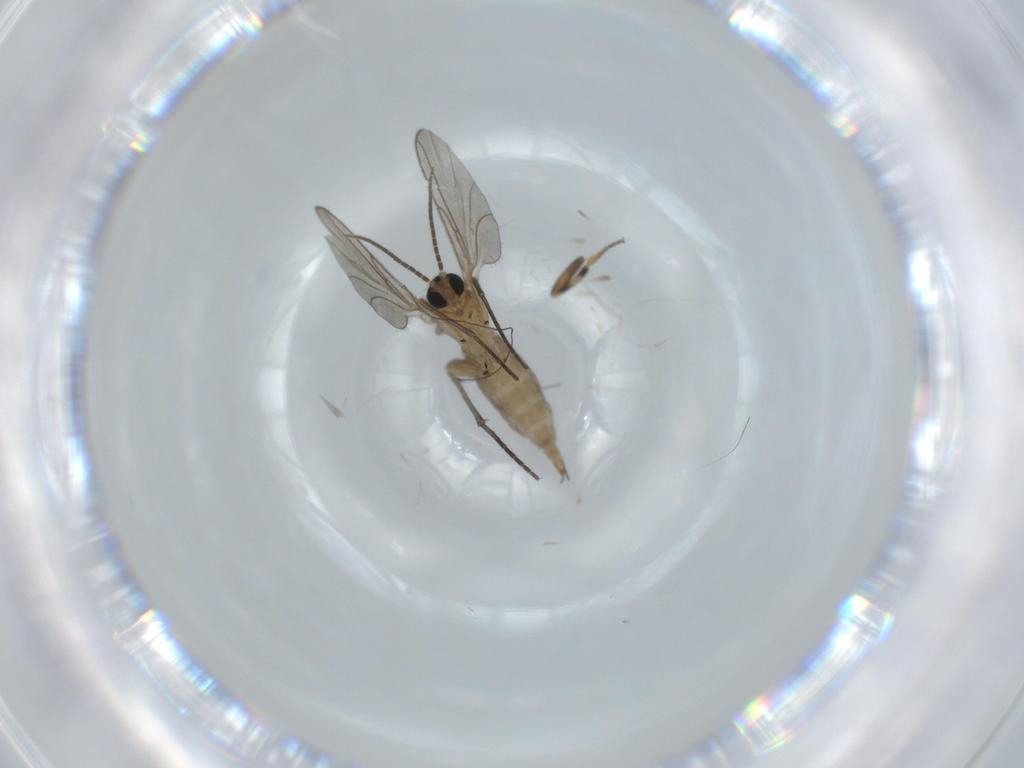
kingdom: Animalia
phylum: Arthropoda
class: Insecta
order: Diptera
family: Sphaeroceridae
